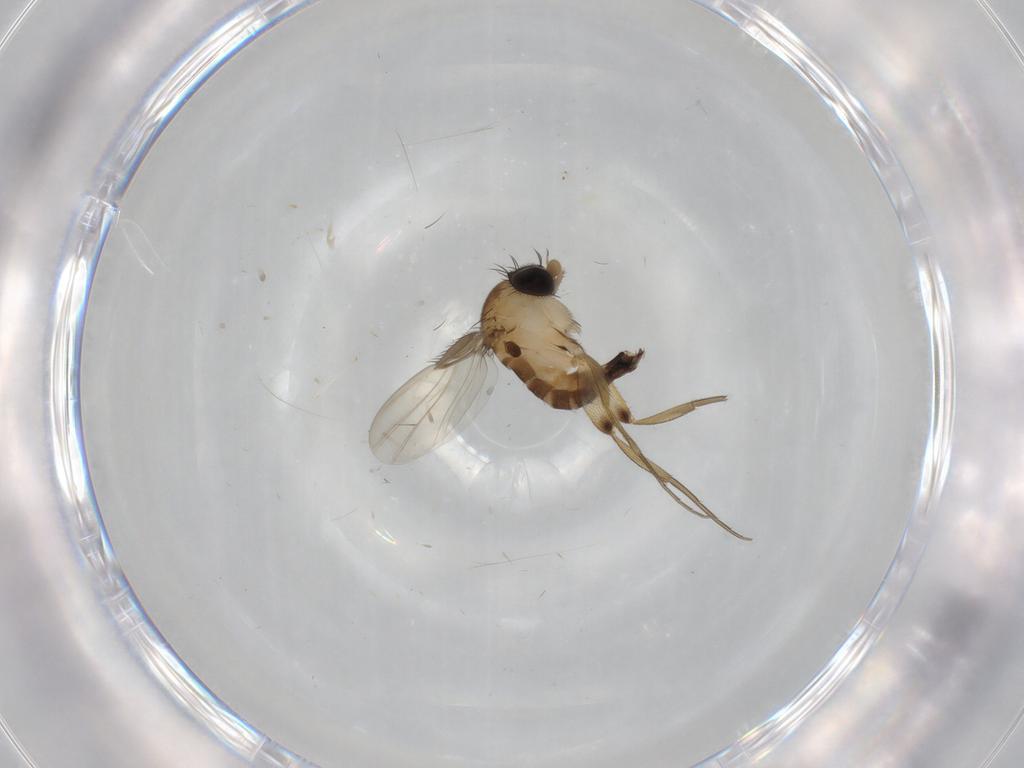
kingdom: Animalia
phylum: Arthropoda
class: Insecta
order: Diptera
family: Phoridae
